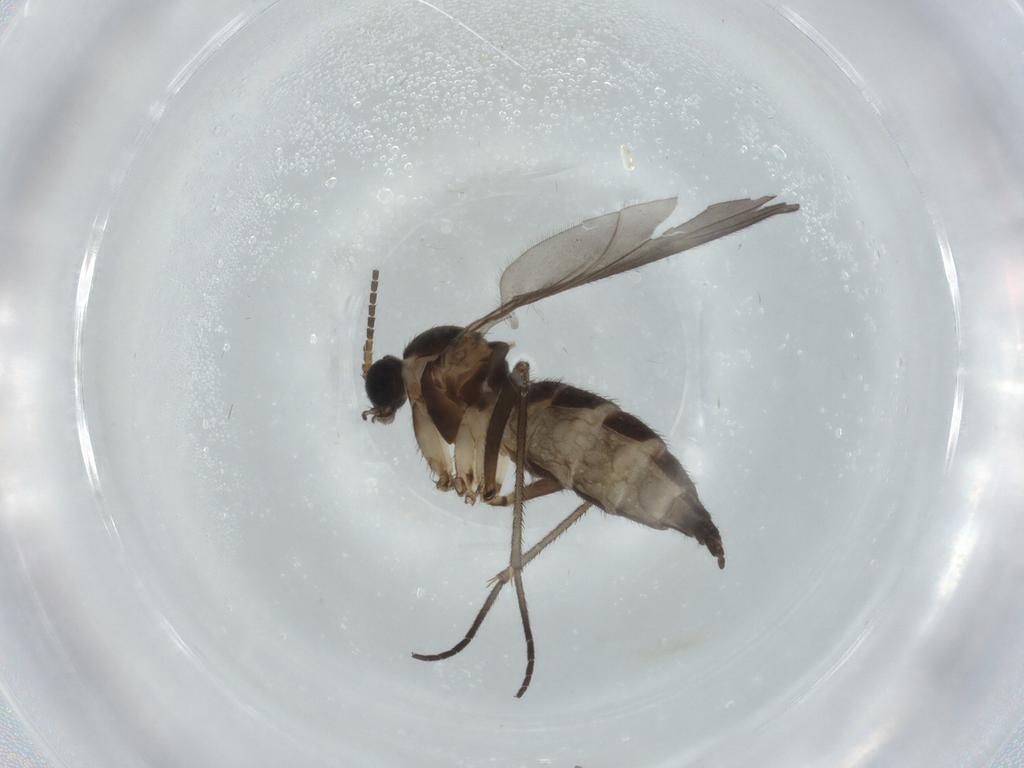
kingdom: Animalia
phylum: Arthropoda
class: Insecta
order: Diptera
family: Sciaridae
